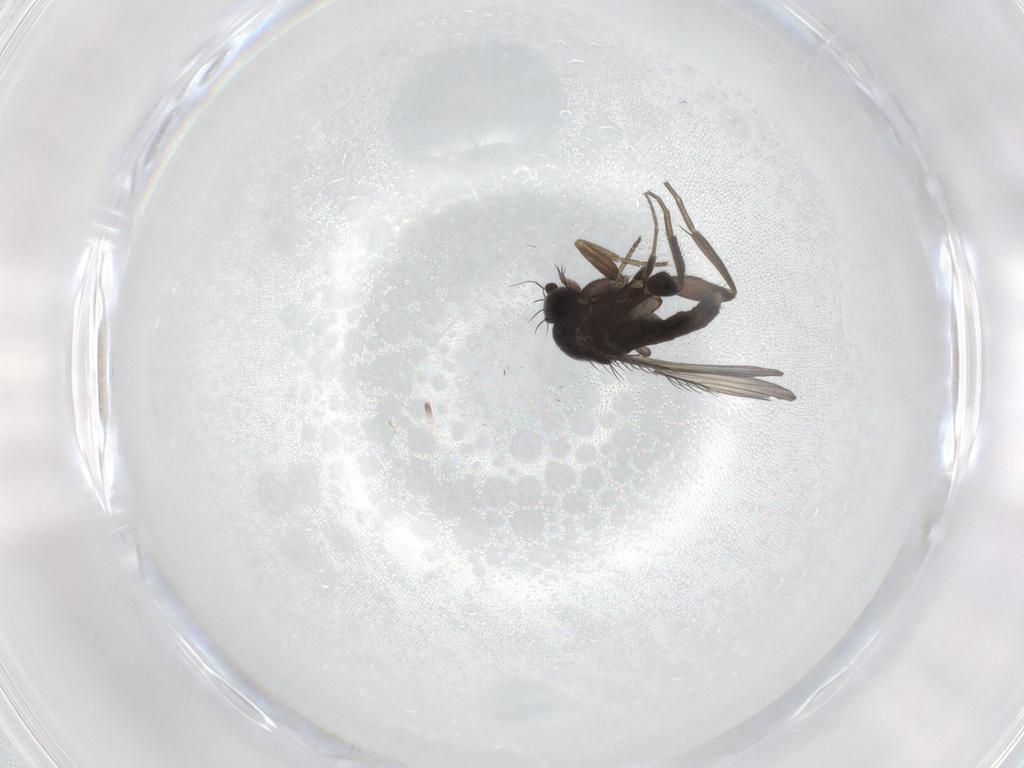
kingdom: Animalia
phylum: Arthropoda
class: Insecta
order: Diptera
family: Phoridae
